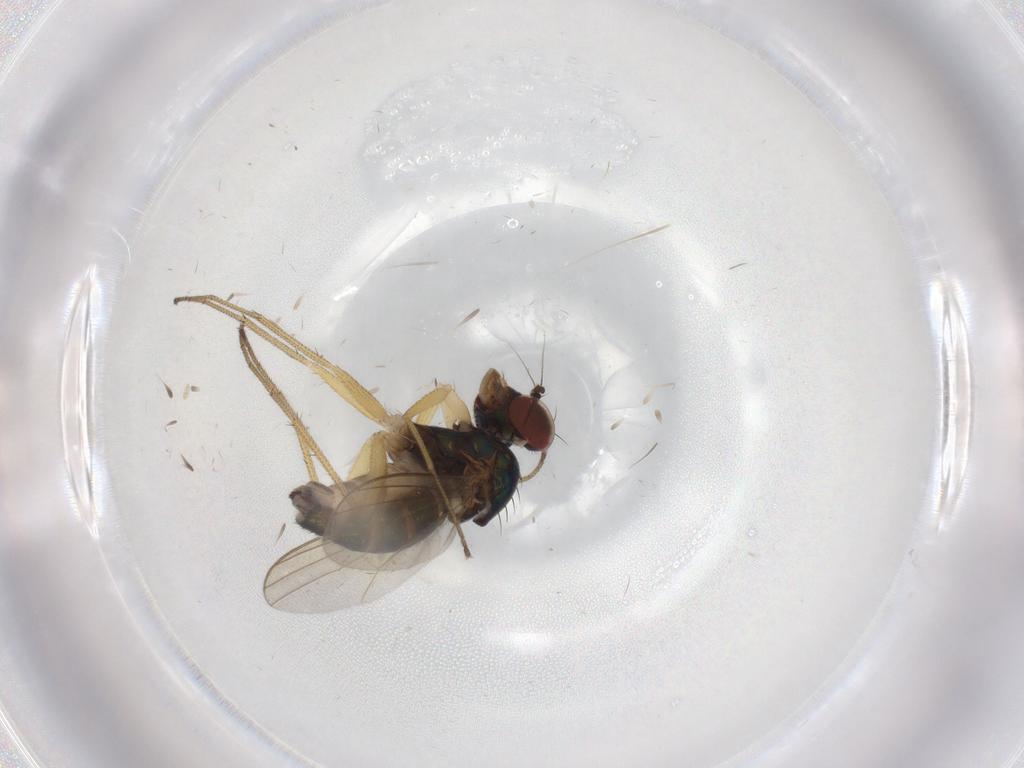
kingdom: Animalia
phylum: Arthropoda
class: Insecta
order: Diptera
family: Dolichopodidae
